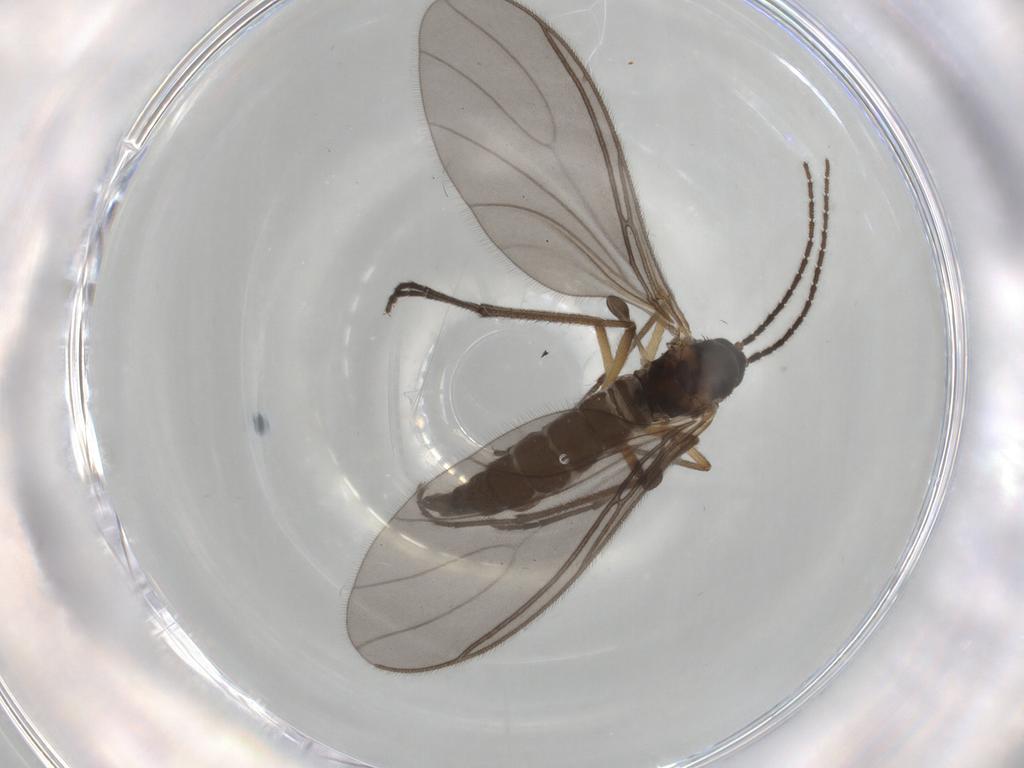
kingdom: Animalia
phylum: Arthropoda
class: Insecta
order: Diptera
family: Sciaridae
